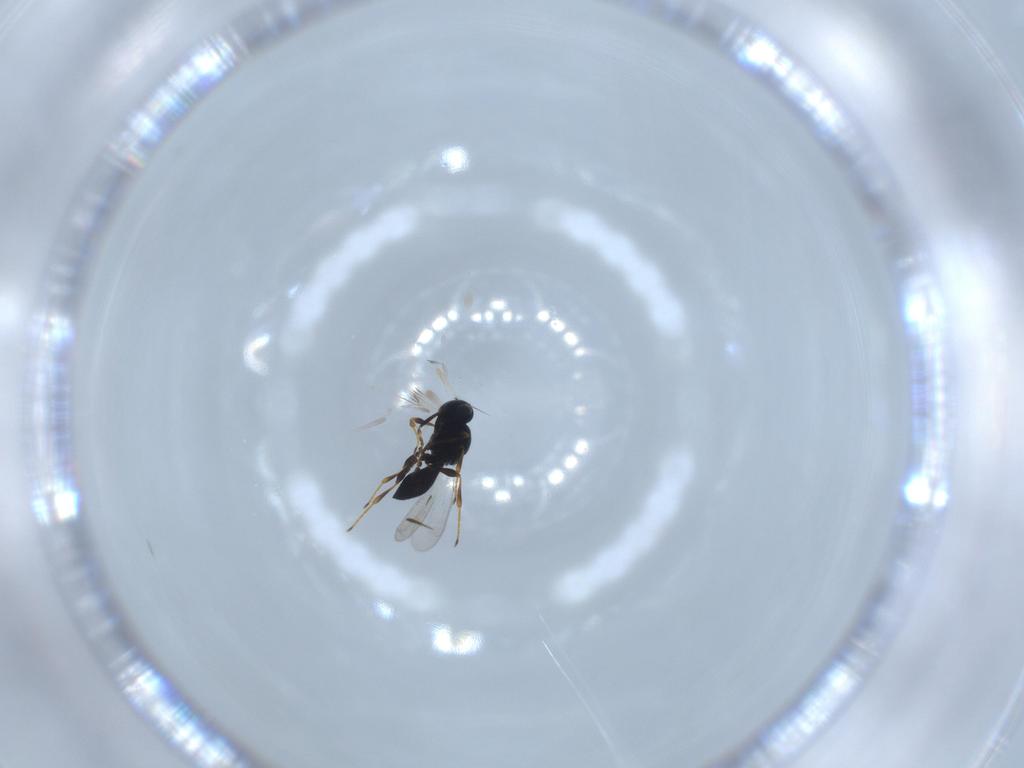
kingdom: Animalia
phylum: Arthropoda
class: Insecta
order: Hymenoptera
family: Platygastridae
